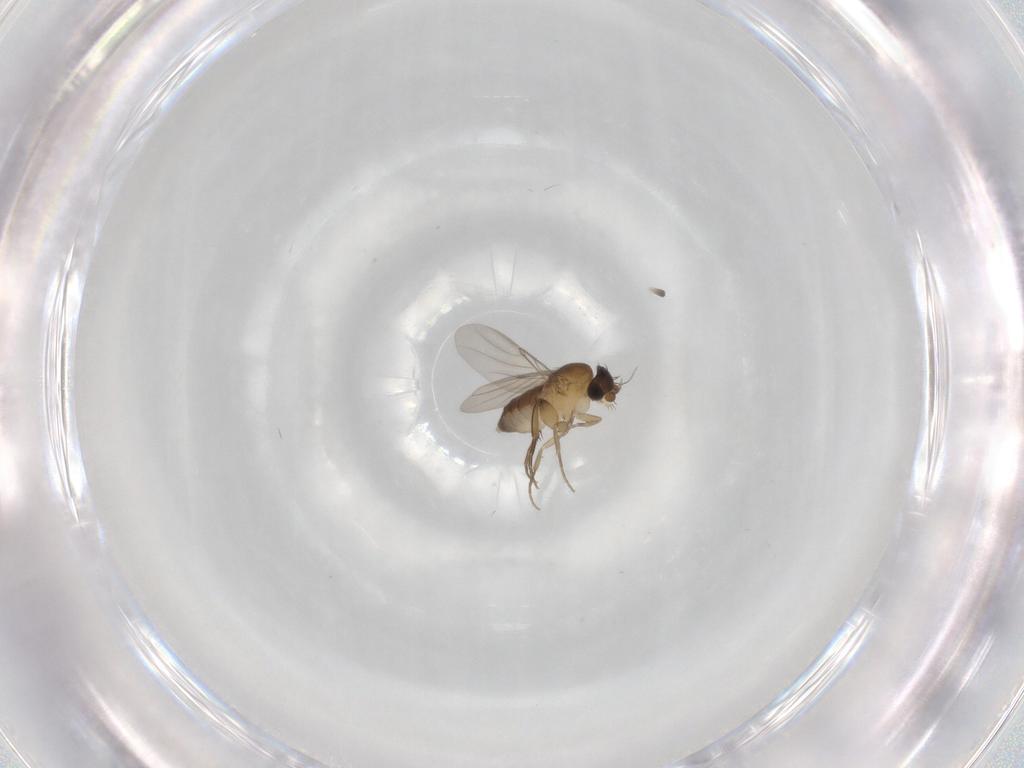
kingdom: Animalia
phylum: Arthropoda
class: Insecta
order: Diptera
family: Phoridae
